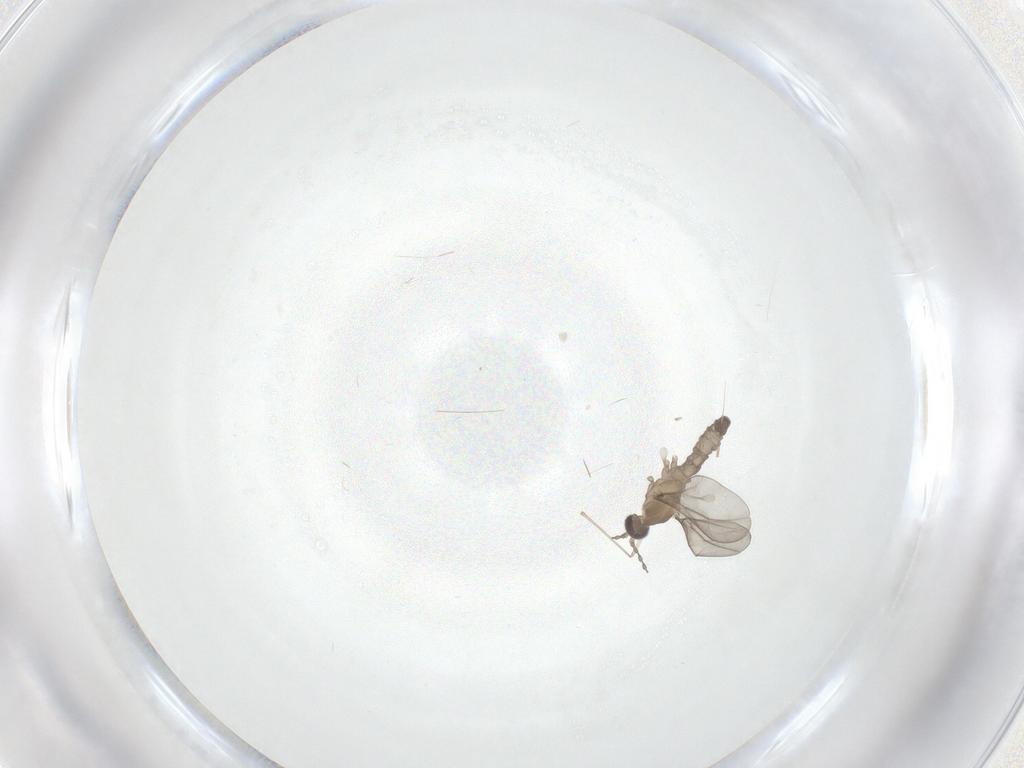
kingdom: Animalia
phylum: Arthropoda
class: Insecta
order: Diptera
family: Cecidomyiidae
